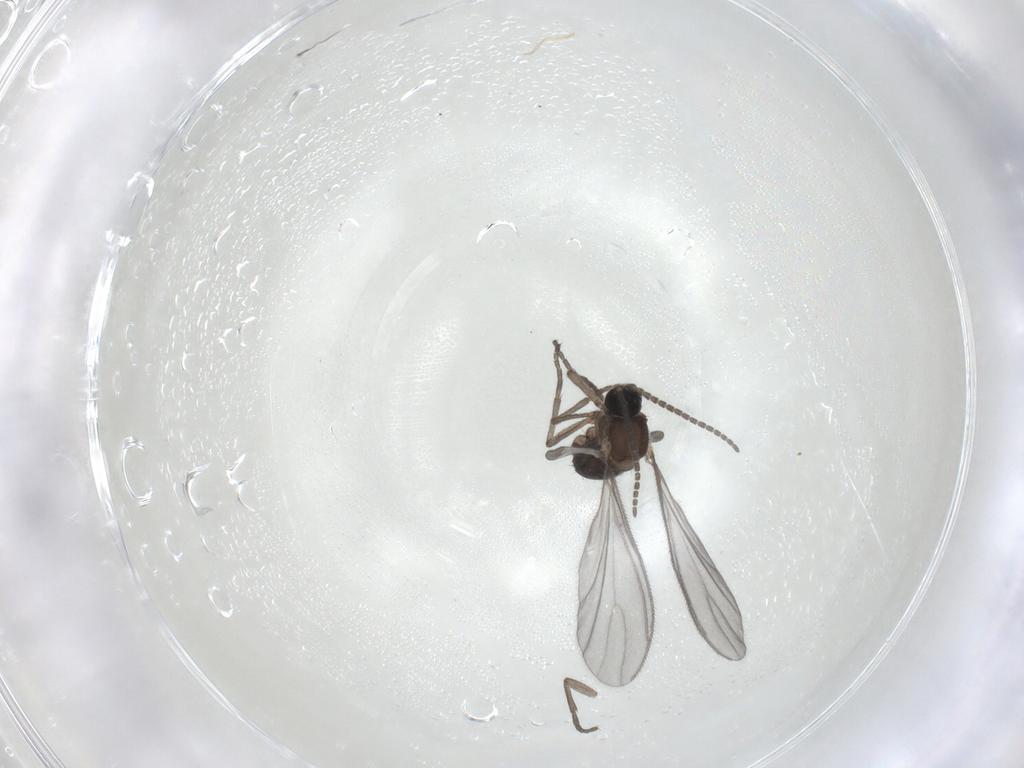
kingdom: Animalia
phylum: Arthropoda
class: Insecta
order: Diptera
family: Sciaridae
